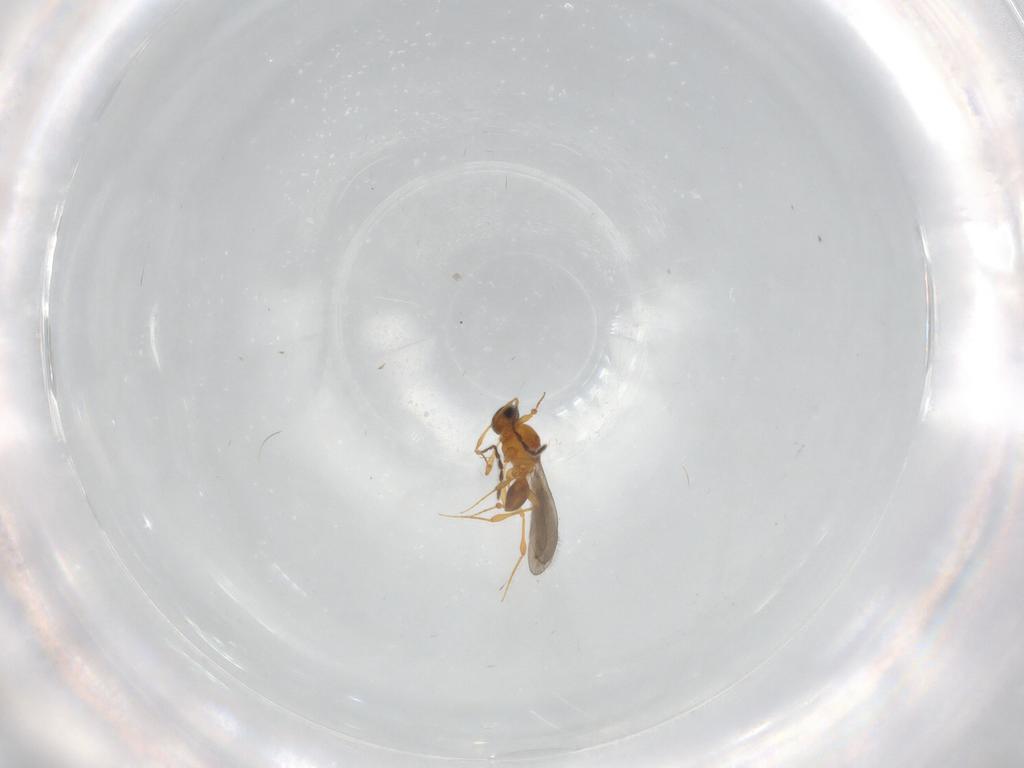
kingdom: Animalia
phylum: Arthropoda
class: Insecta
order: Hymenoptera
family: Platygastridae
